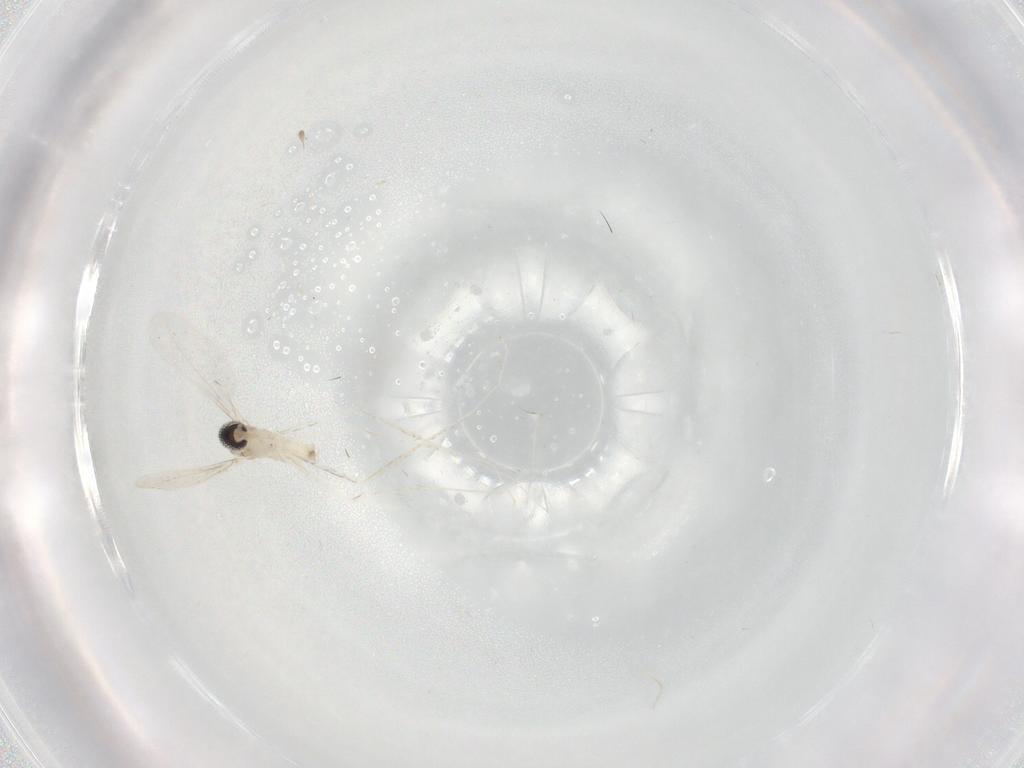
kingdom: Animalia
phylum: Arthropoda
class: Insecta
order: Diptera
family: Cecidomyiidae
